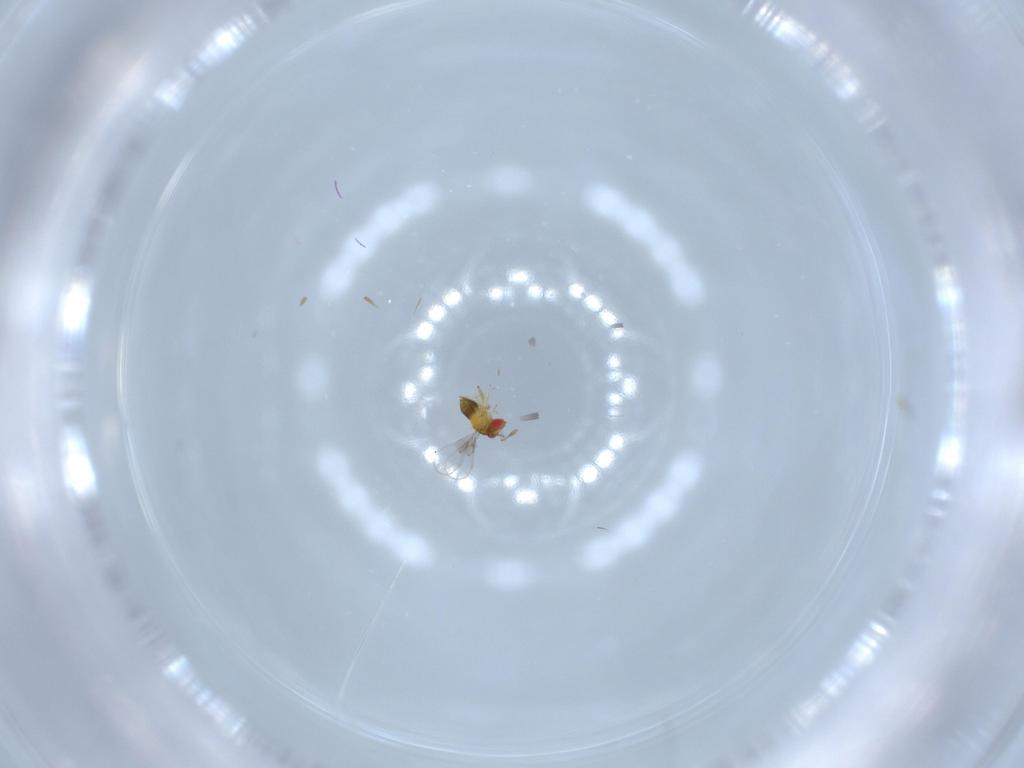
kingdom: Animalia
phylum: Arthropoda
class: Insecta
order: Hymenoptera
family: Trichogrammatidae
